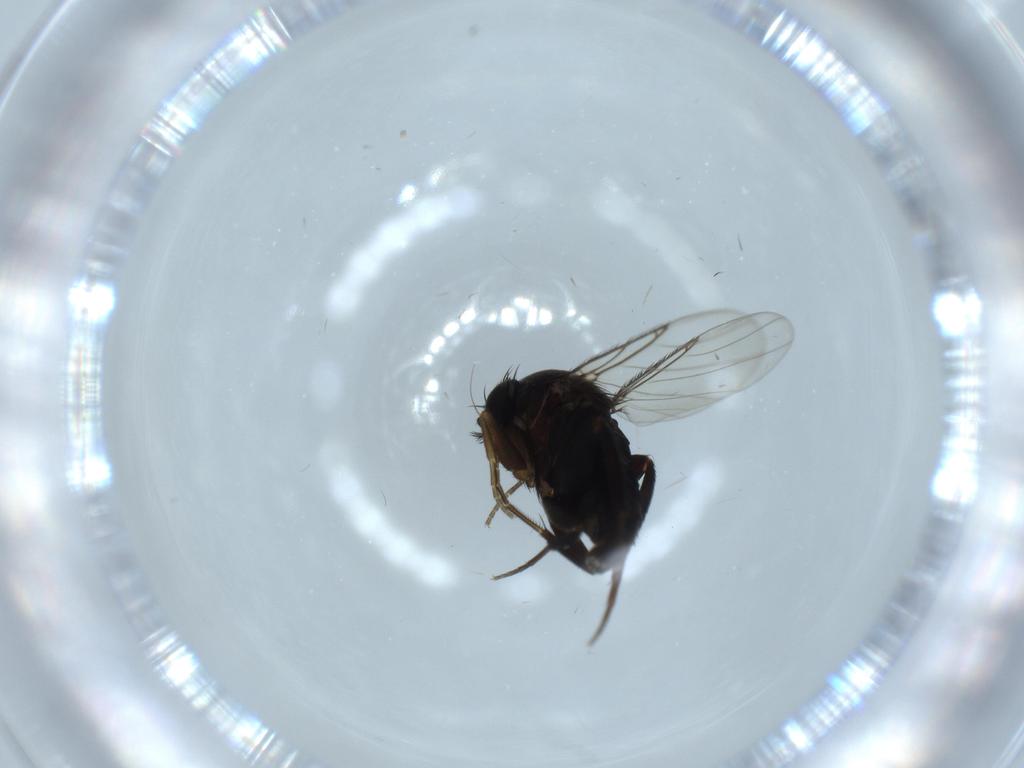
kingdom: Animalia
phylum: Arthropoda
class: Insecta
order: Diptera
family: Phoridae
